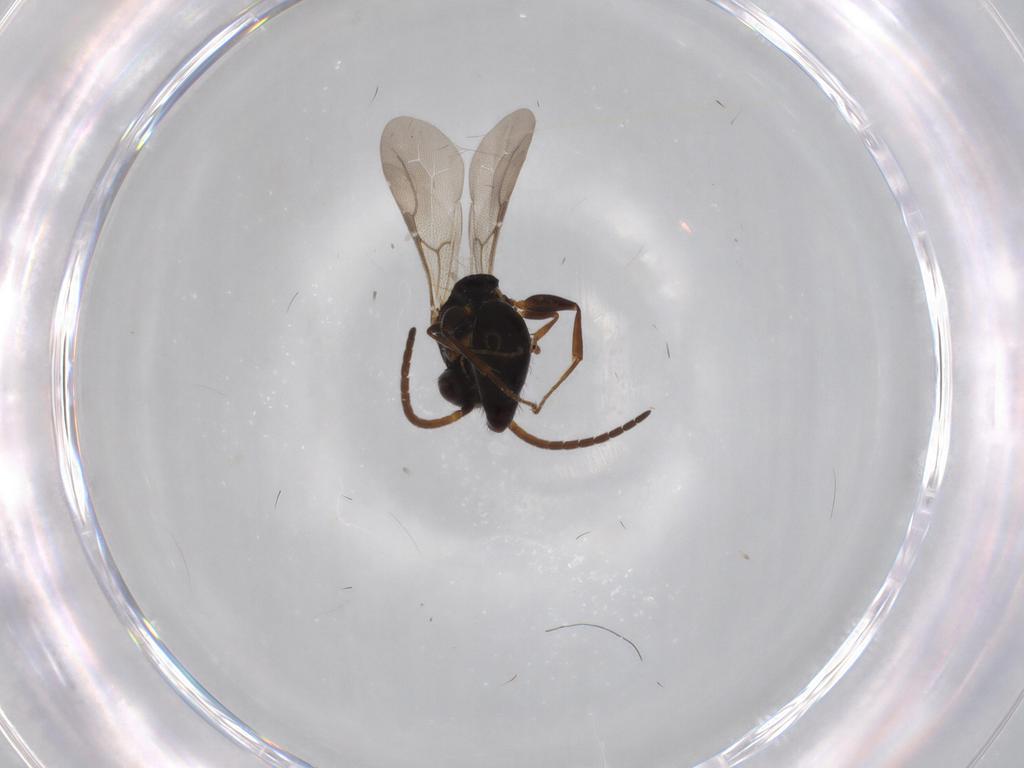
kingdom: Animalia
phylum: Arthropoda
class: Insecta
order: Hymenoptera
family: Bethylidae
